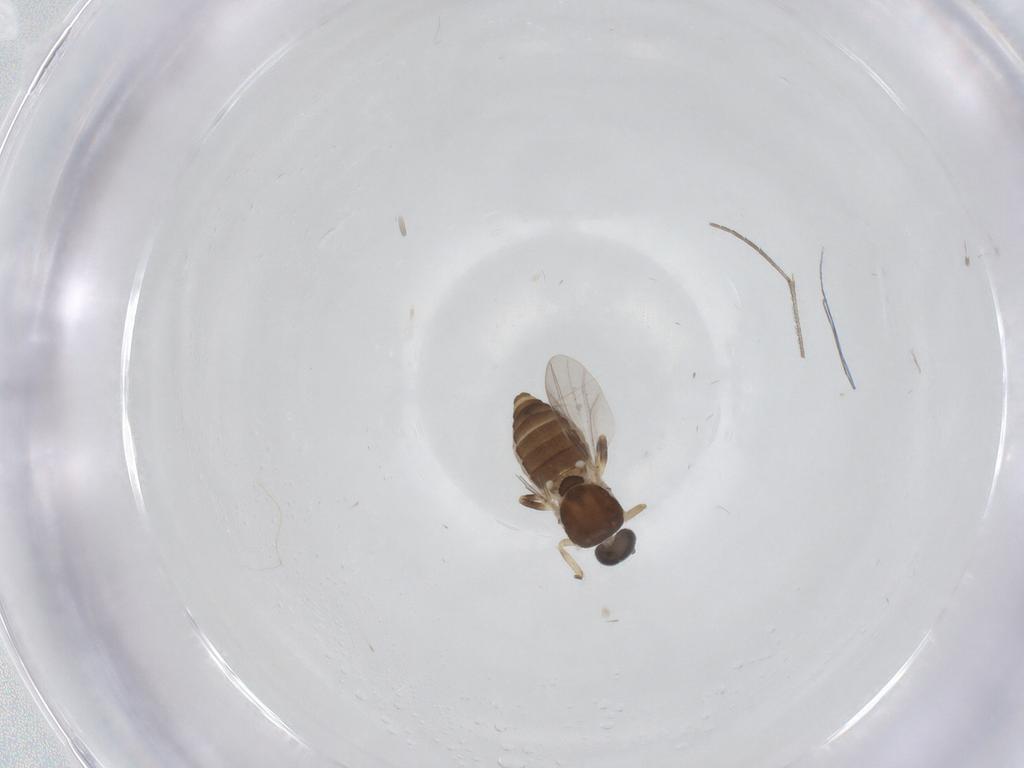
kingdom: Animalia
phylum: Arthropoda
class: Insecta
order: Diptera
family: Ceratopogonidae
